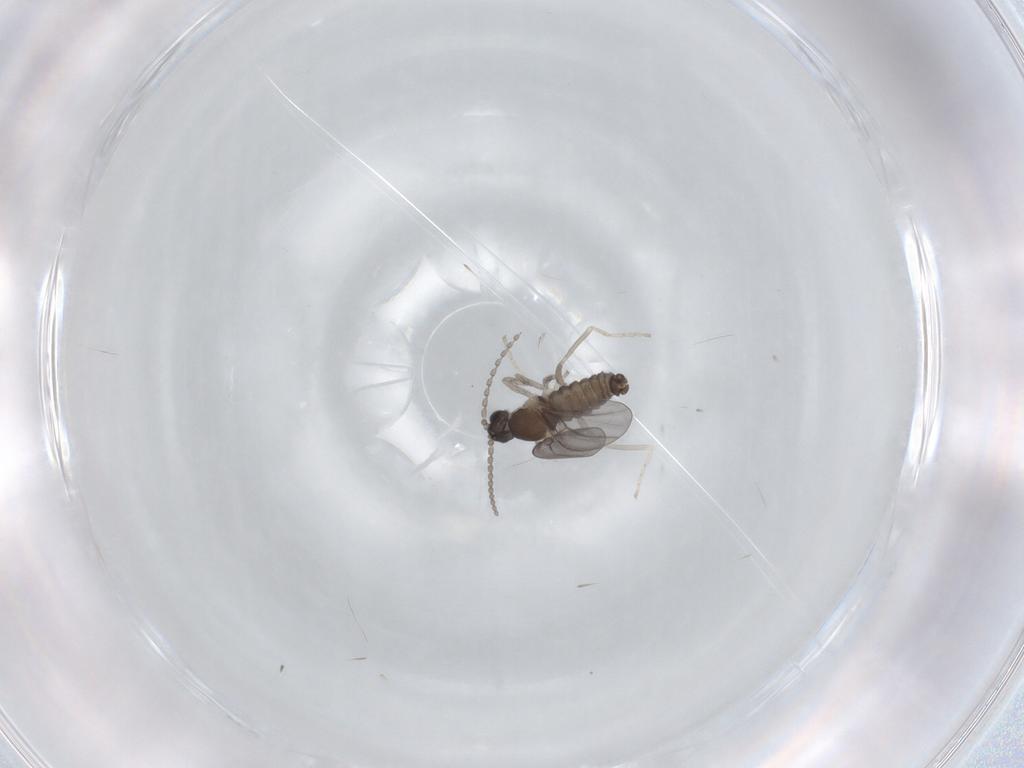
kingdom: Animalia
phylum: Arthropoda
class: Insecta
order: Diptera
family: Cecidomyiidae
